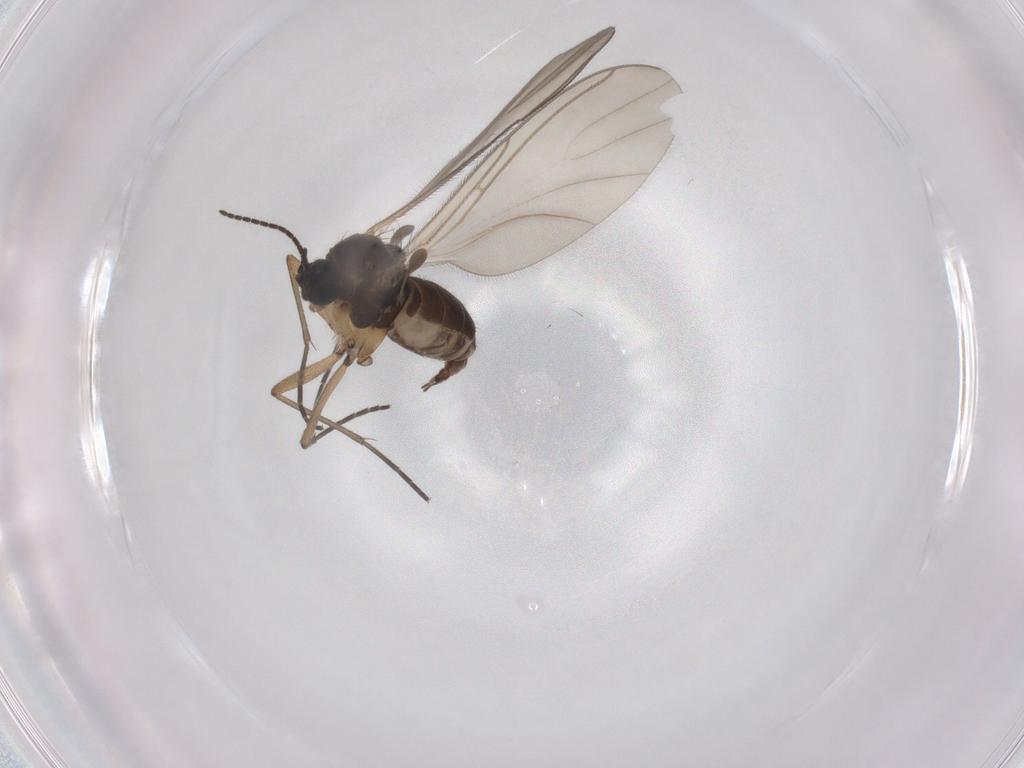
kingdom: Animalia
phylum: Arthropoda
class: Insecta
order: Diptera
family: Sciaridae
